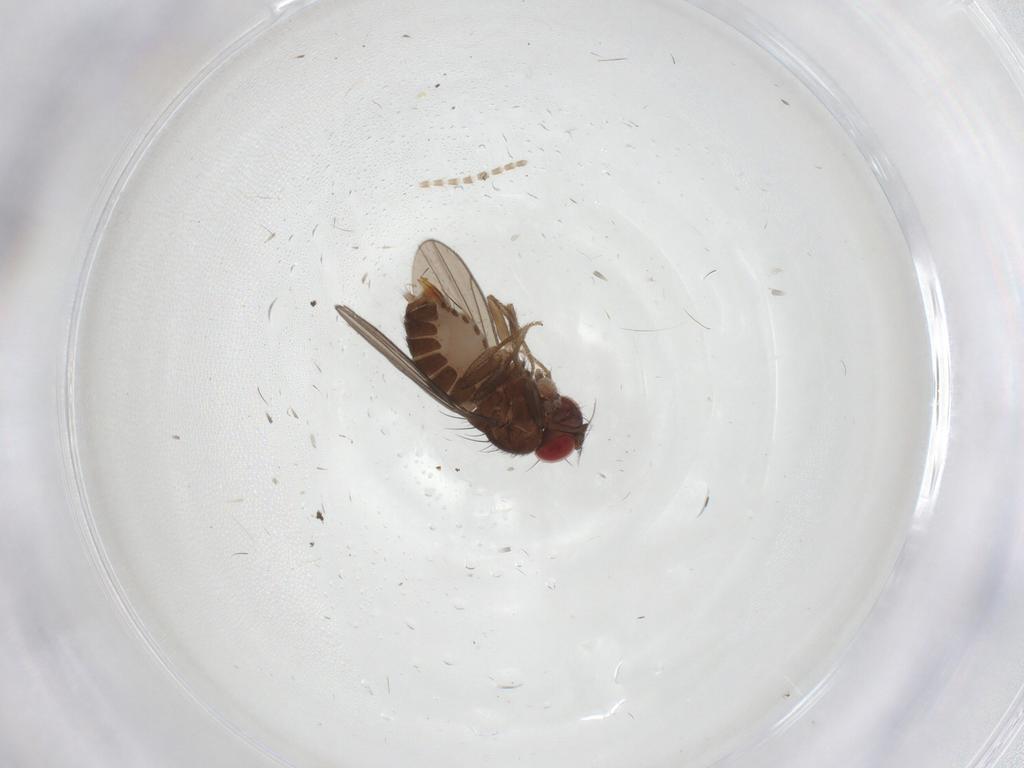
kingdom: Animalia
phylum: Arthropoda
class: Insecta
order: Diptera
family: Drosophilidae
